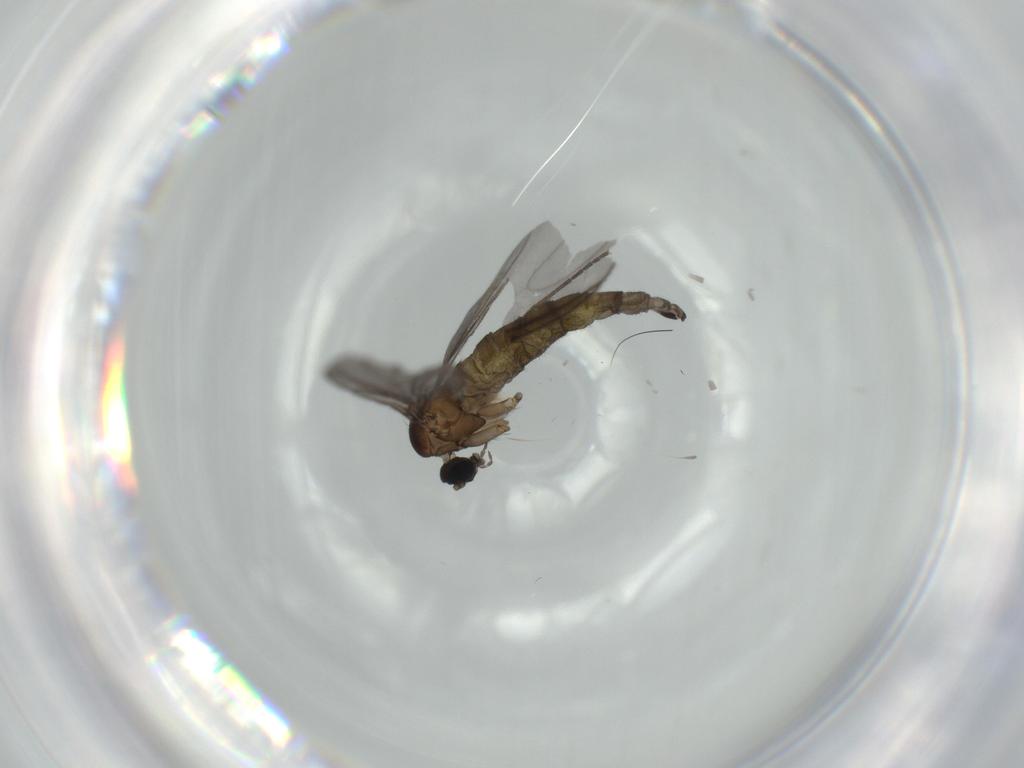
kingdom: Animalia
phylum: Arthropoda
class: Insecta
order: Diptera
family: Sciaridae
